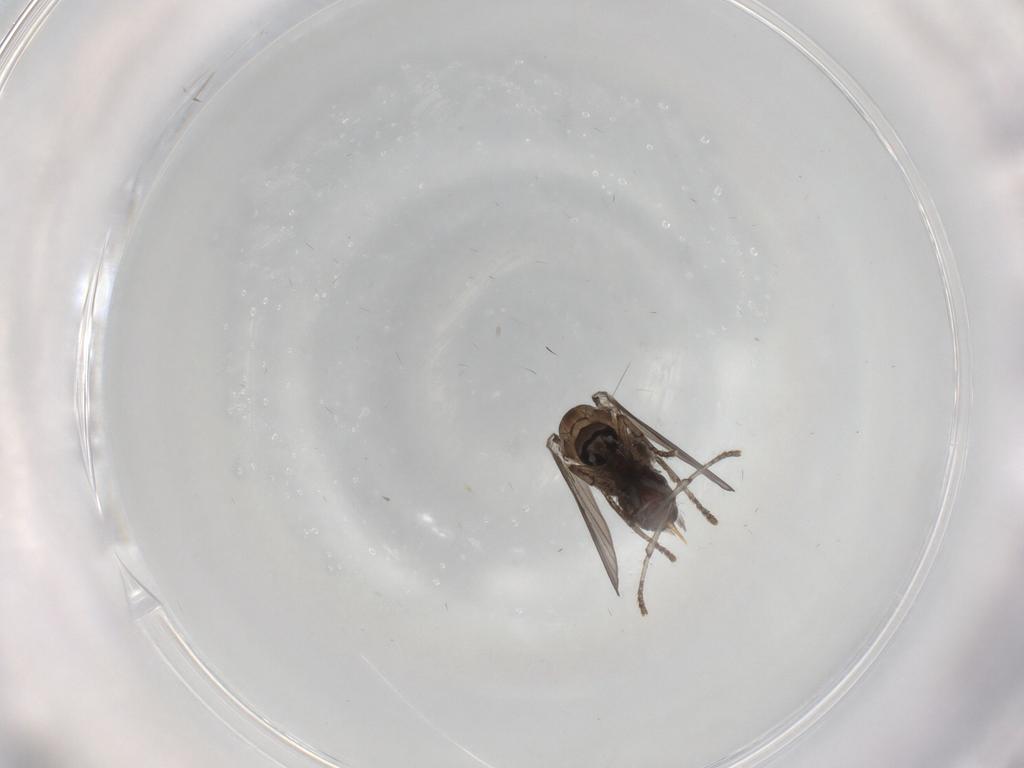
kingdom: Animalia
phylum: Arthropoda
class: Insecta
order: Diptera
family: Psychodidae
